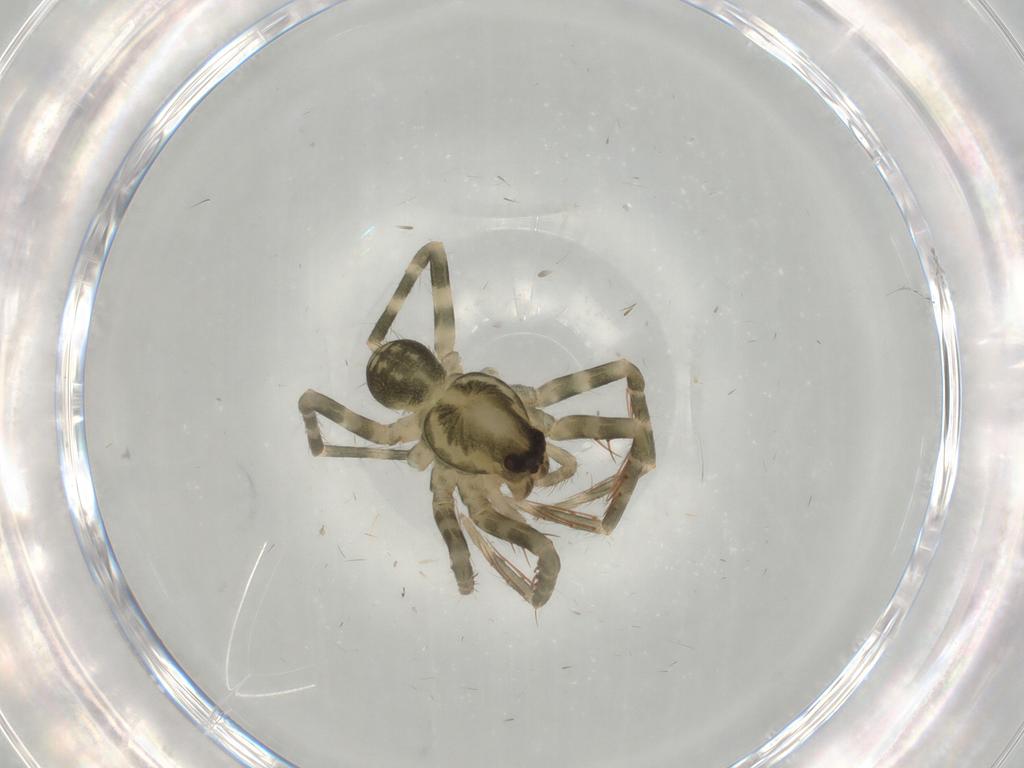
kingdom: Animalia
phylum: Arthropoda
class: Arachnida
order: Araneae
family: Ctenidae
